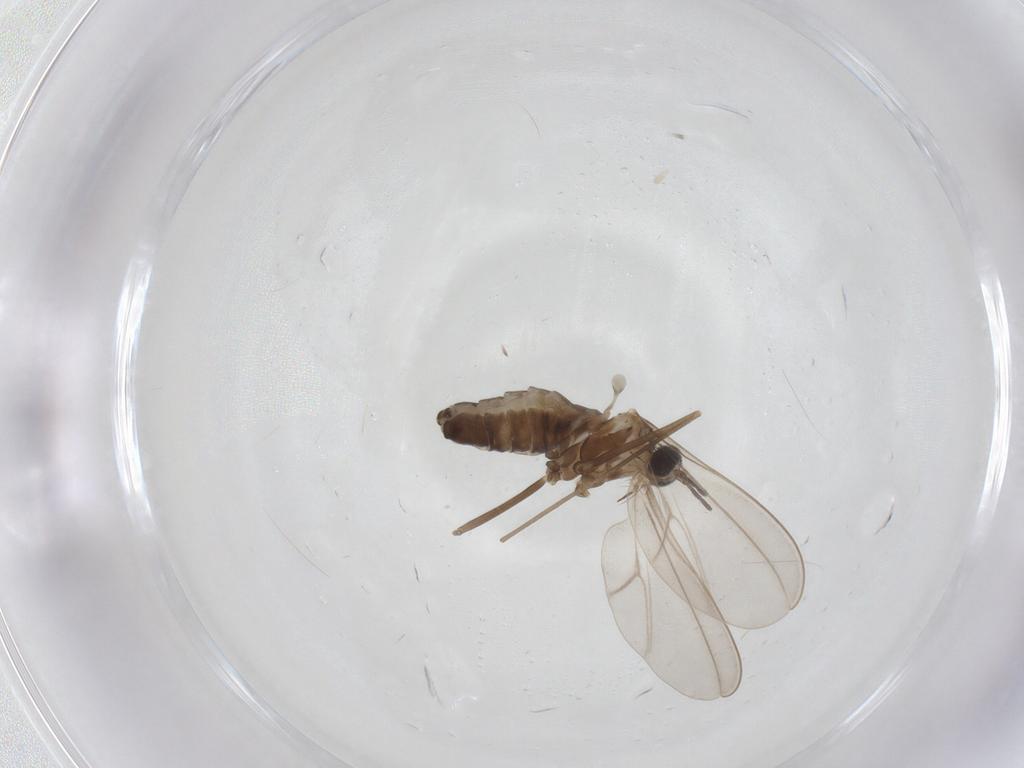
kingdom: Animalia
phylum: Arthropoda
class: Insecta
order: Diptera
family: Cecidomyiidae
